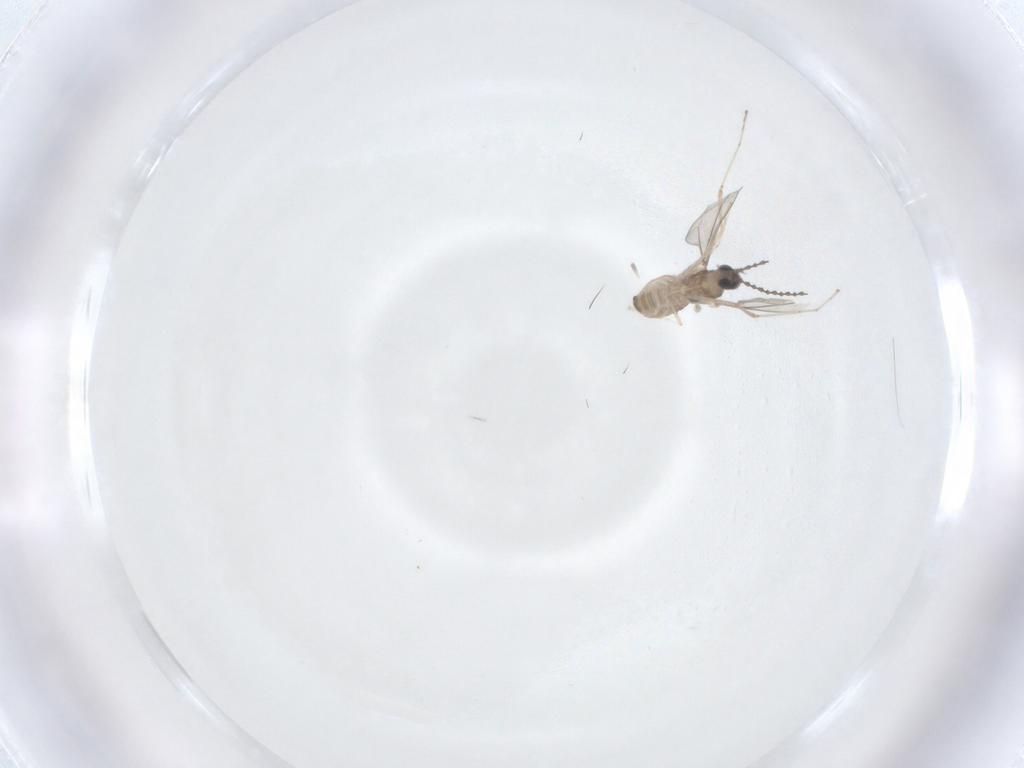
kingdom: Animalia
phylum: Arthropoda
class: Insecta
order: Diptera
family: Cecidomyiidae
